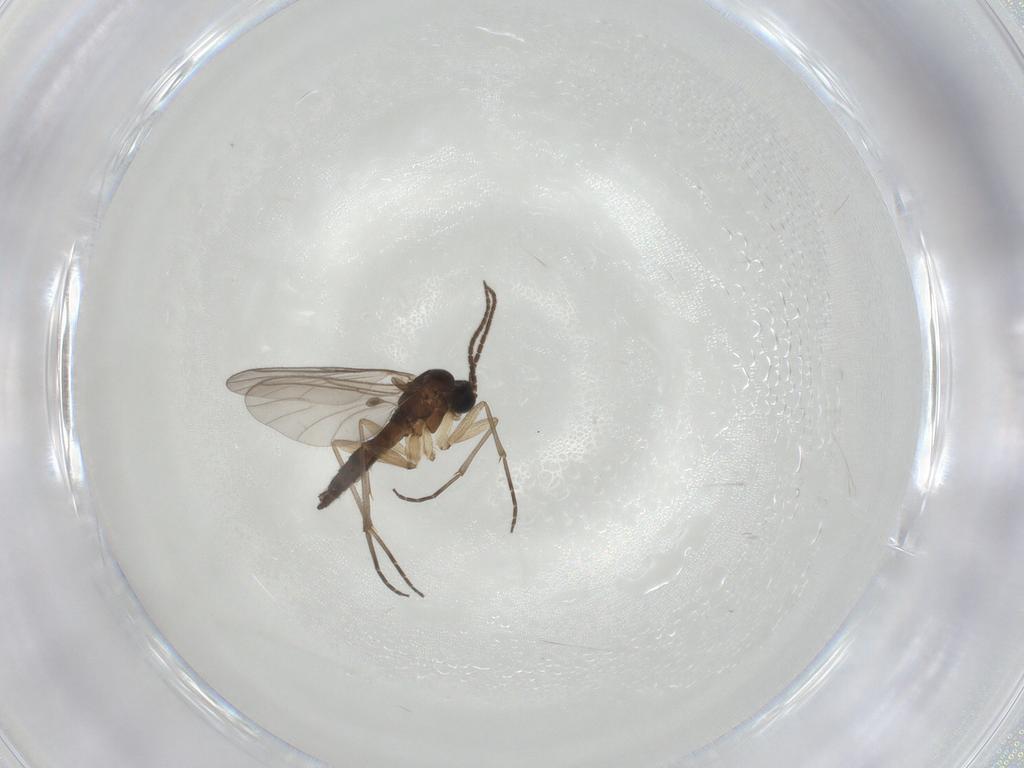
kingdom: Animalia
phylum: Arthropoda
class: Insecta
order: Diptera
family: Sciaridae
